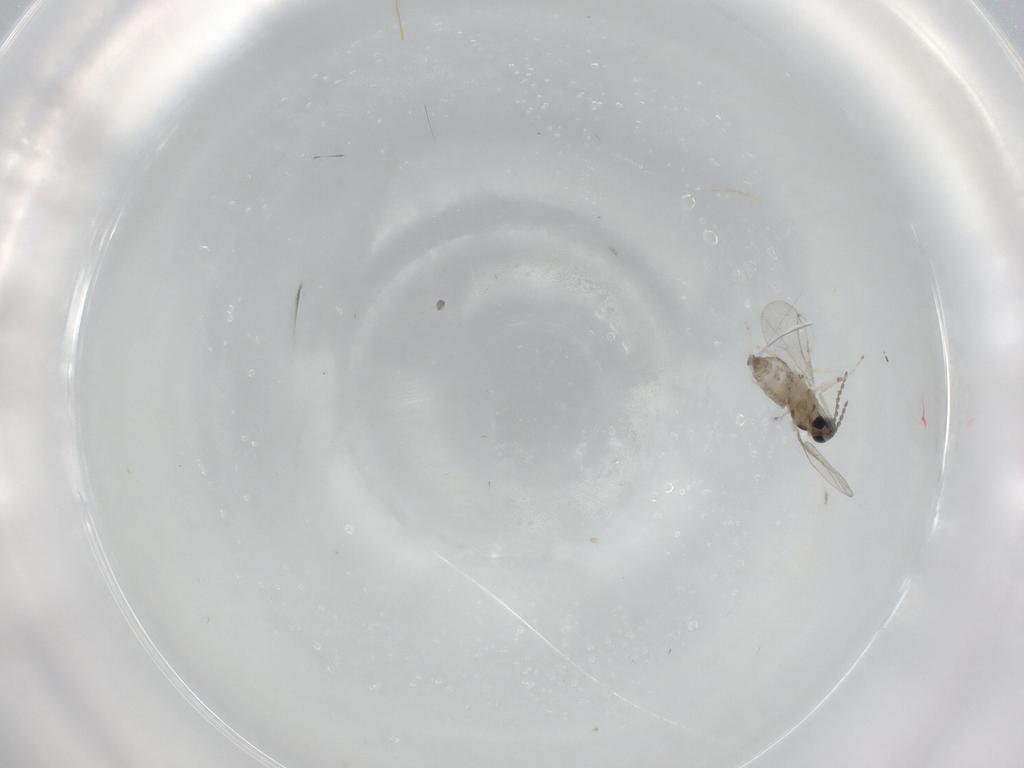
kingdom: Animalia
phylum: Arthropoda
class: Insecta
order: Diptera
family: Cecidomyiidae
